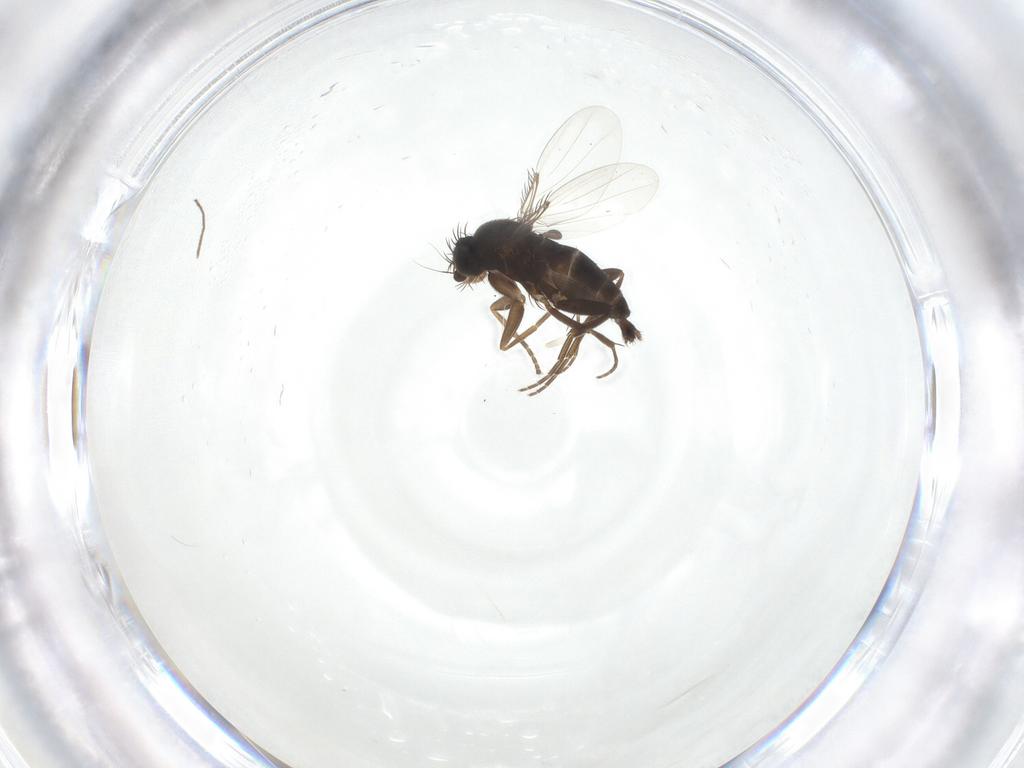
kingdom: Animalia
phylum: Arthropoda
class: Insecta
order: Diptera
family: Phoridae
